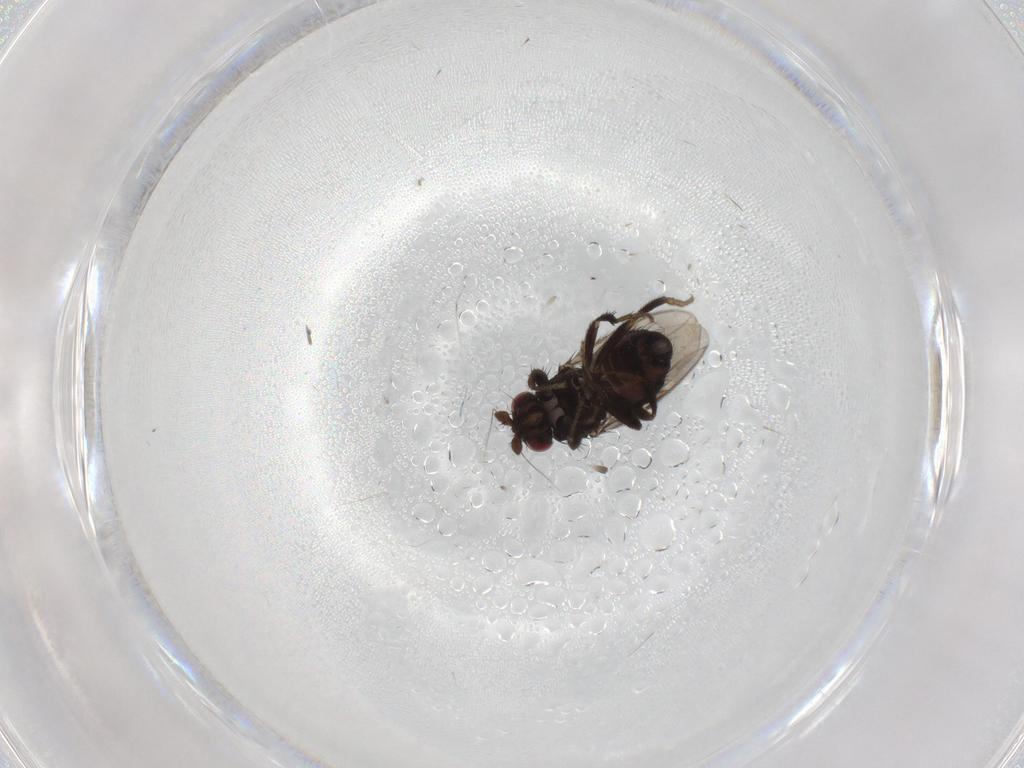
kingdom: Animalia
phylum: Arthropoda
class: Insecta
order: Diptera
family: Sphaeroceridae
